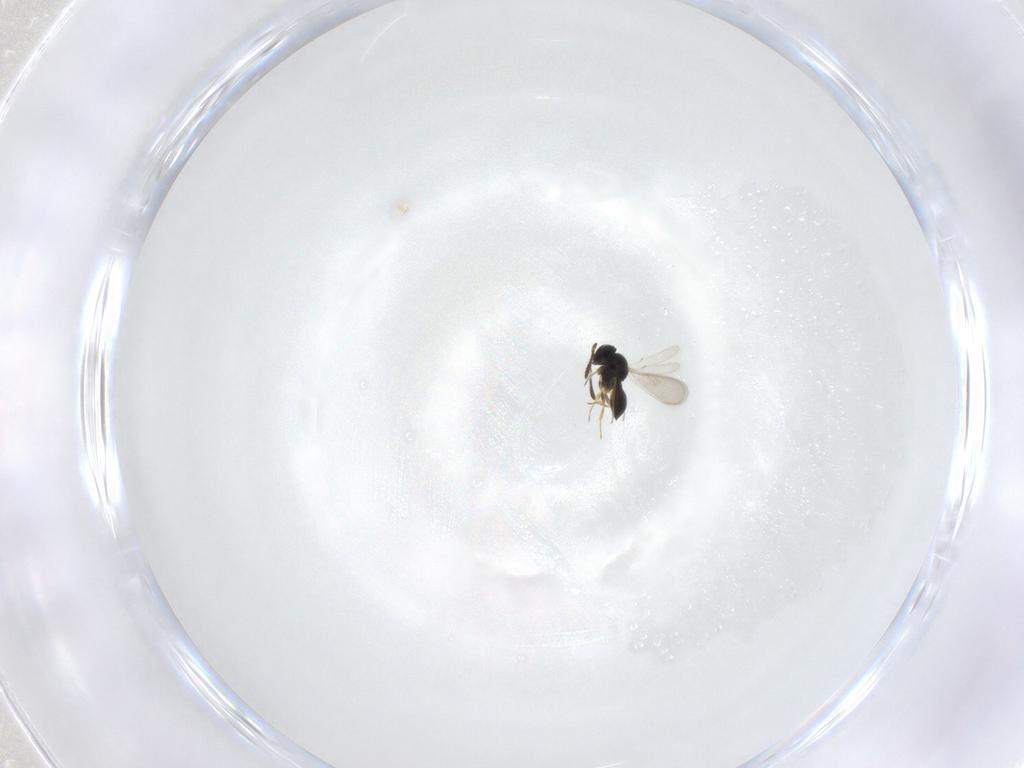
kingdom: Animalia
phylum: Arthropoda
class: Insecta
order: Hymenoptera
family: Scelionidae
